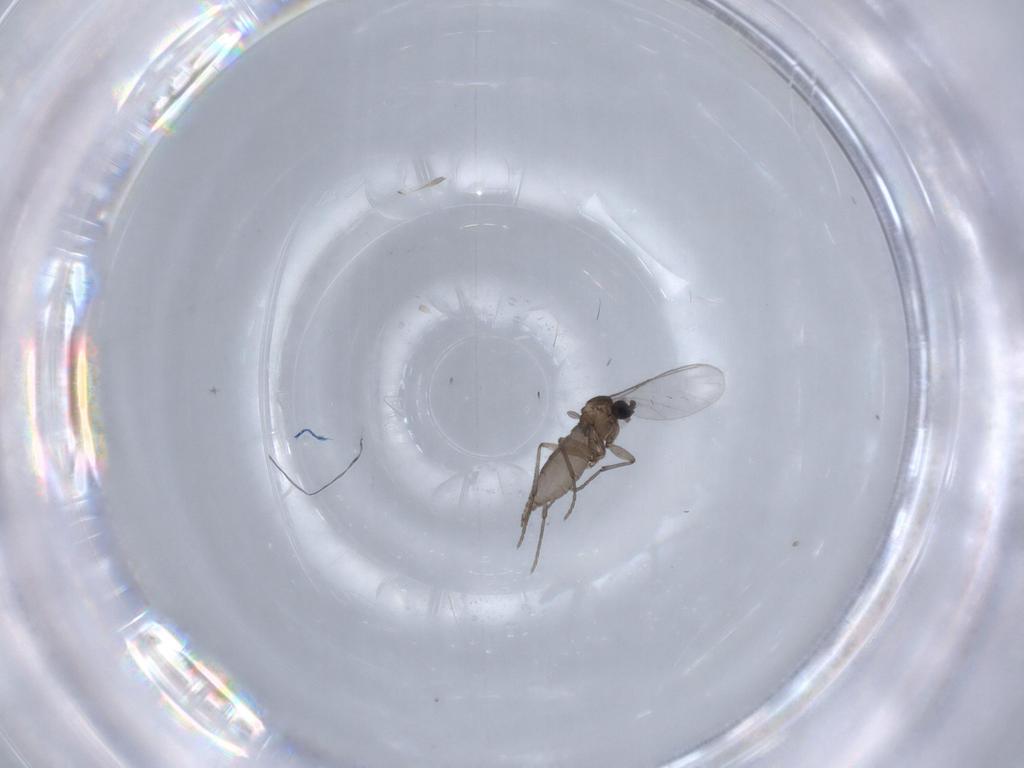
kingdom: Animalia
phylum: Arthropoda
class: Insecta
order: Diptera
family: Sciaridae
